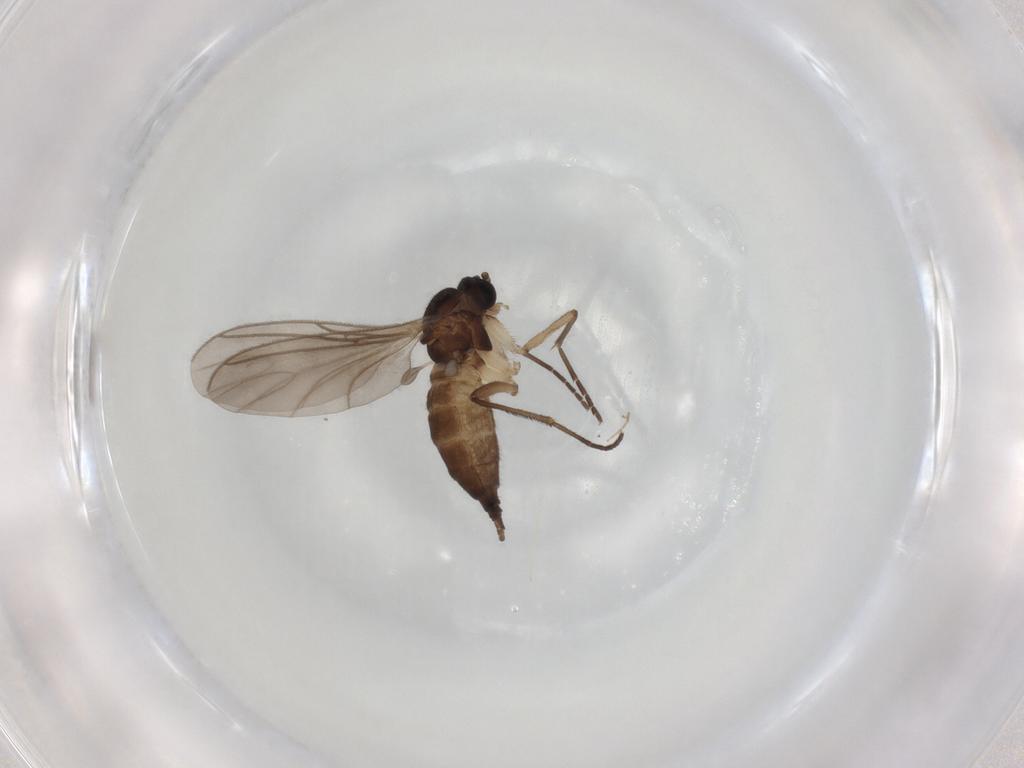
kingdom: Animalia
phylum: Arthropoda
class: Insecta
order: Diptera
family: Sciaridae
